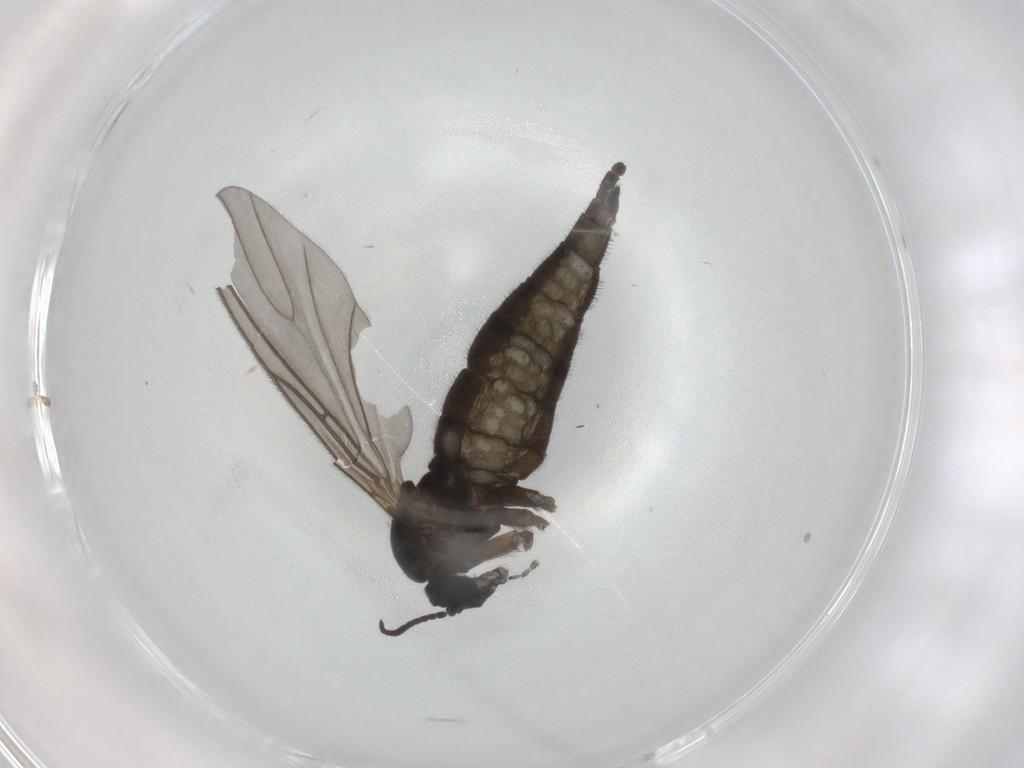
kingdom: Animalia
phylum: Arthropoda
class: Insecta
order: Diptera
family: Sciaridae
